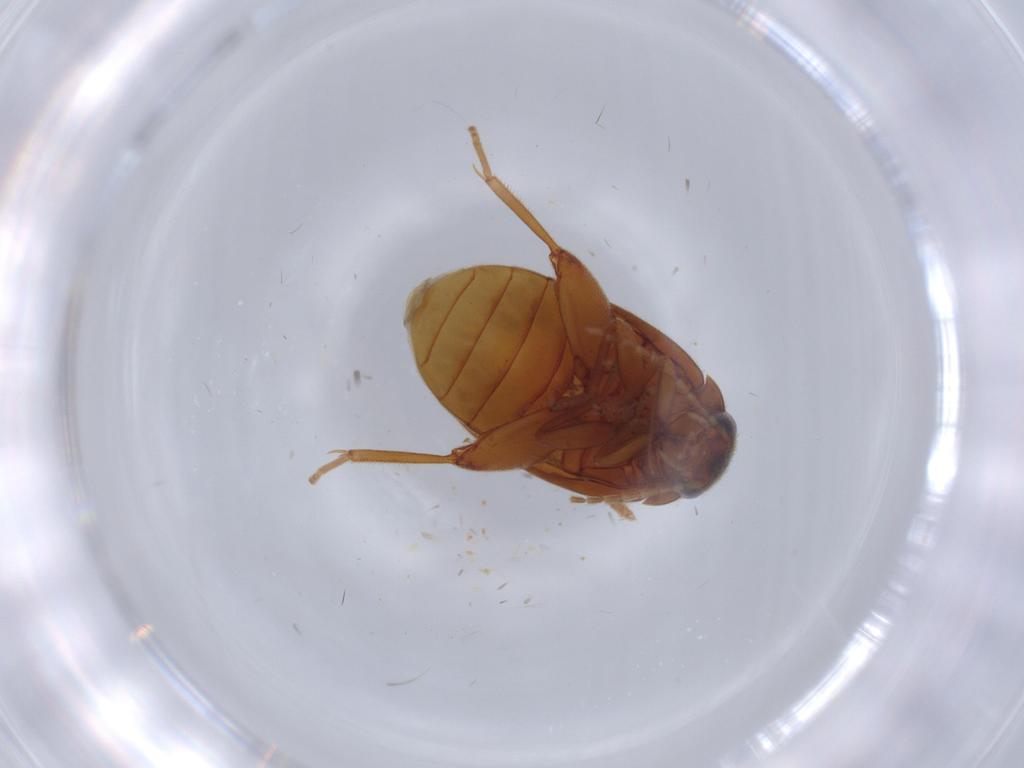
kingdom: Animalia
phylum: Arthropoda
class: Insecta
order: Coleoptera
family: Scirtidae
